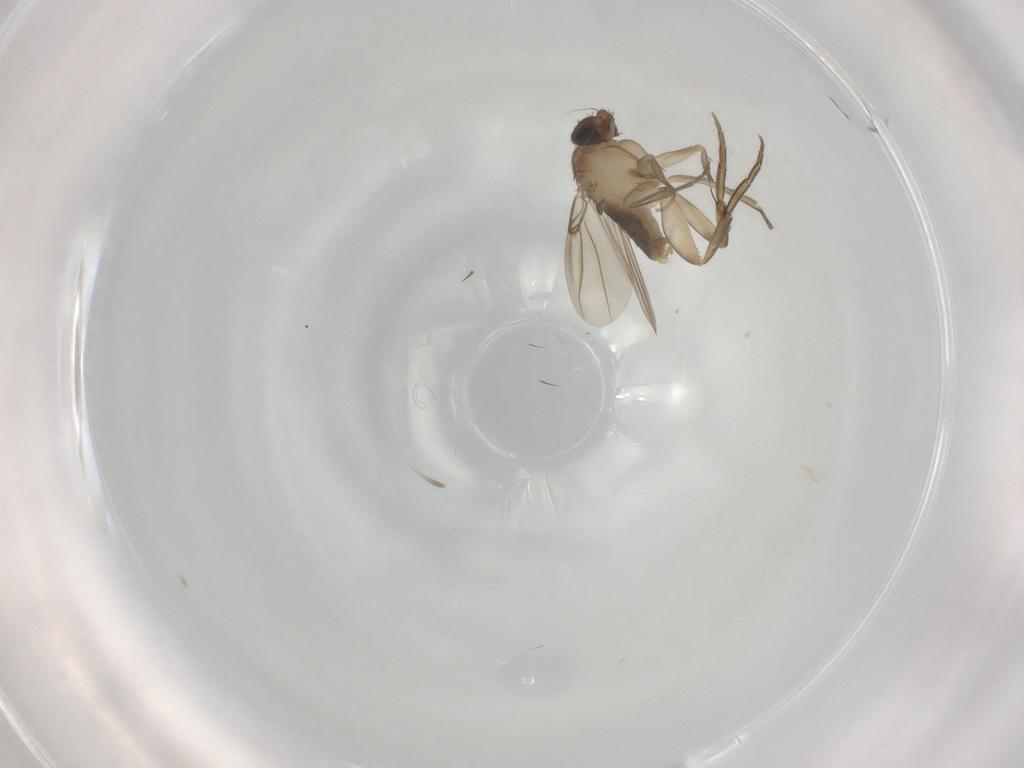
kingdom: Animalia
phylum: Arthropoda
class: Insecta
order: Diptera
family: Phoridae
